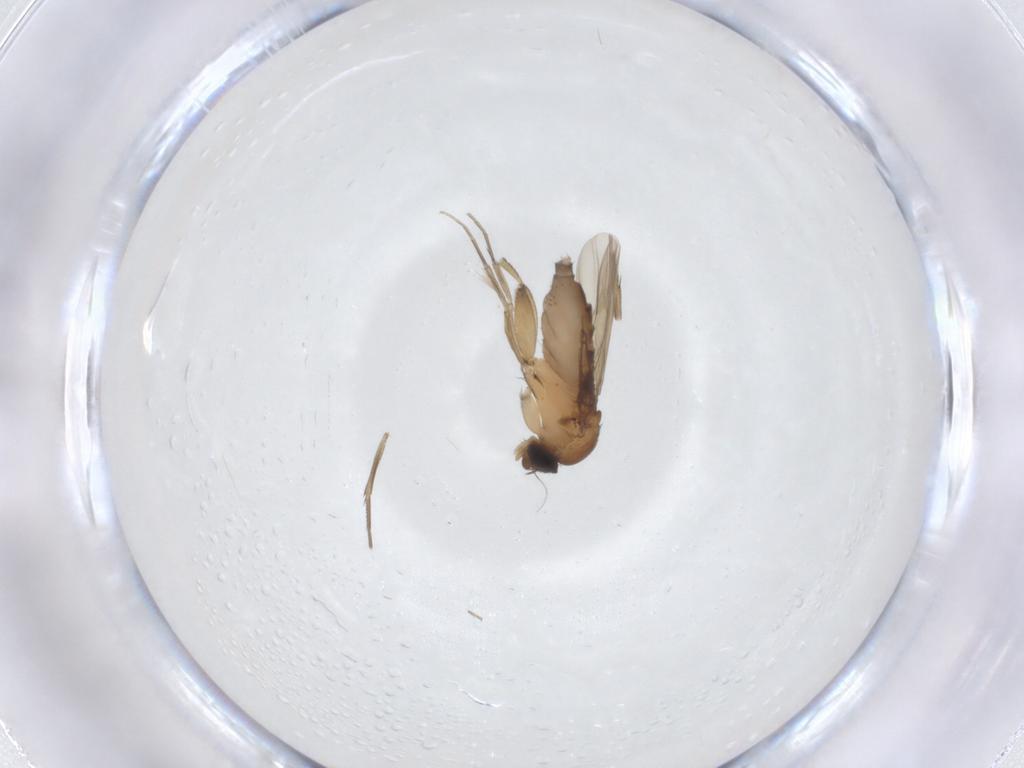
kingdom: Animalia
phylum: Arthropoda
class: Insecta
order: Diptera
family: Phoridae
